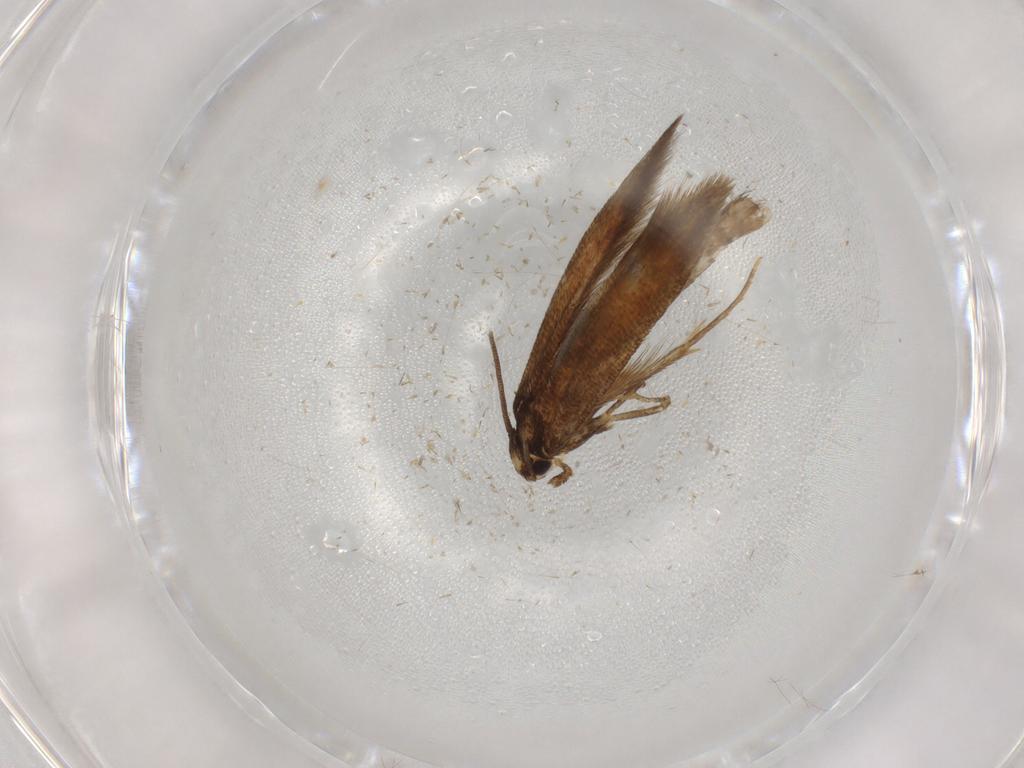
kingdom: Animalia
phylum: Arthropoda
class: Insecta
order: Lepidoptera
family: Tineidae
